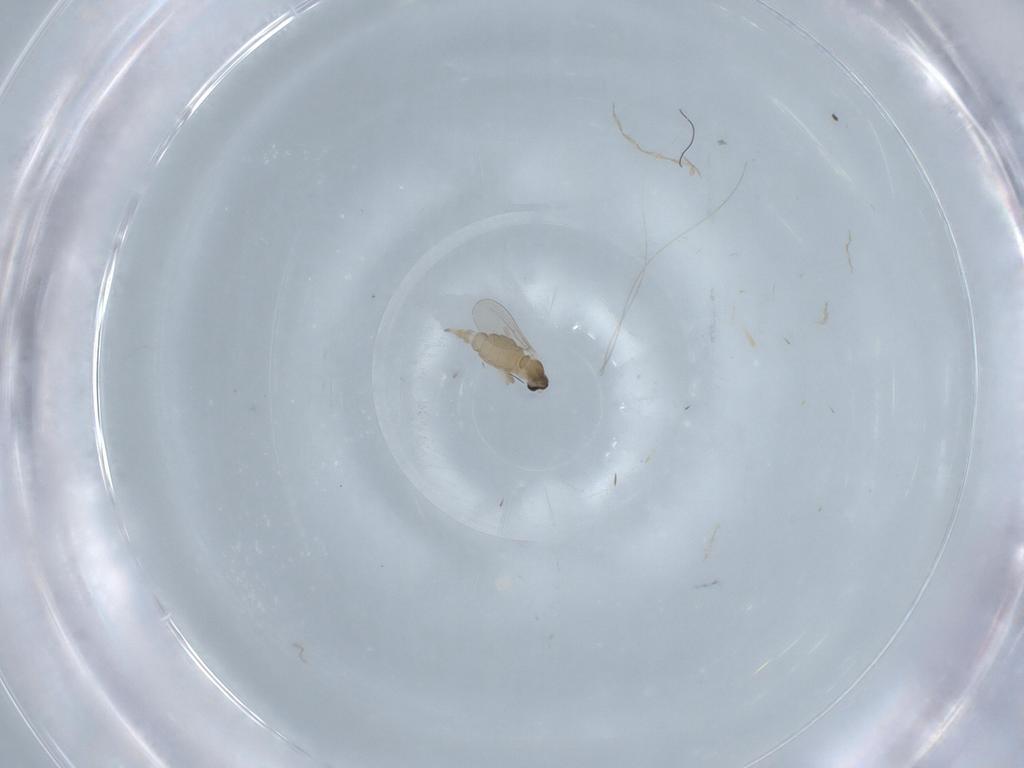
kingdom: Animalia
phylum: Arthropoda
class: Insecta
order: Diptera
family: Cecidomyiidae
